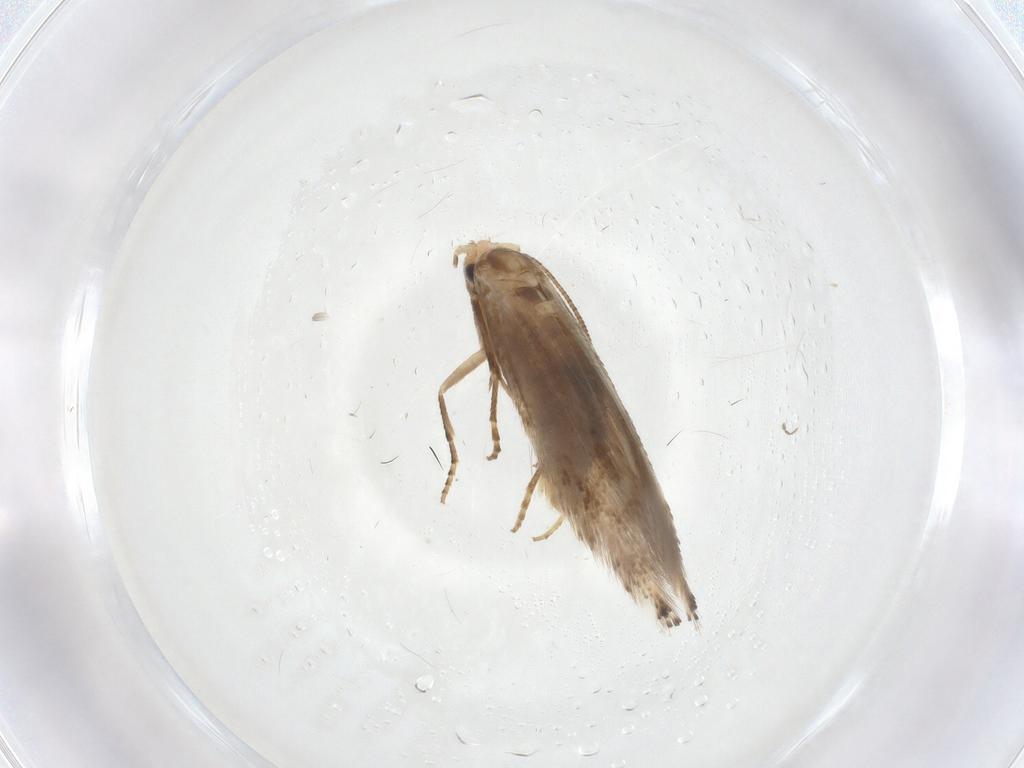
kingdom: Animalia
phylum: Arthropoda
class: Insecta
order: Lepidoptera
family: Bucculatricidae
